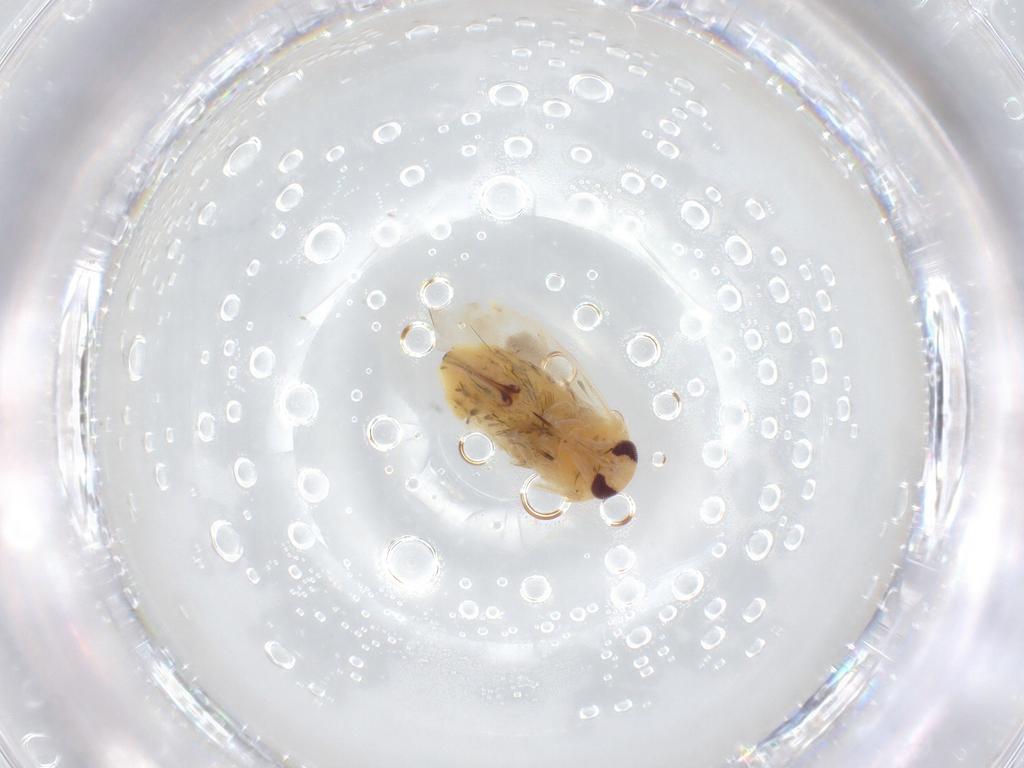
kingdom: Animalia
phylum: Arthropoda
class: Insecta
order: Hemiptera
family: Miridae
